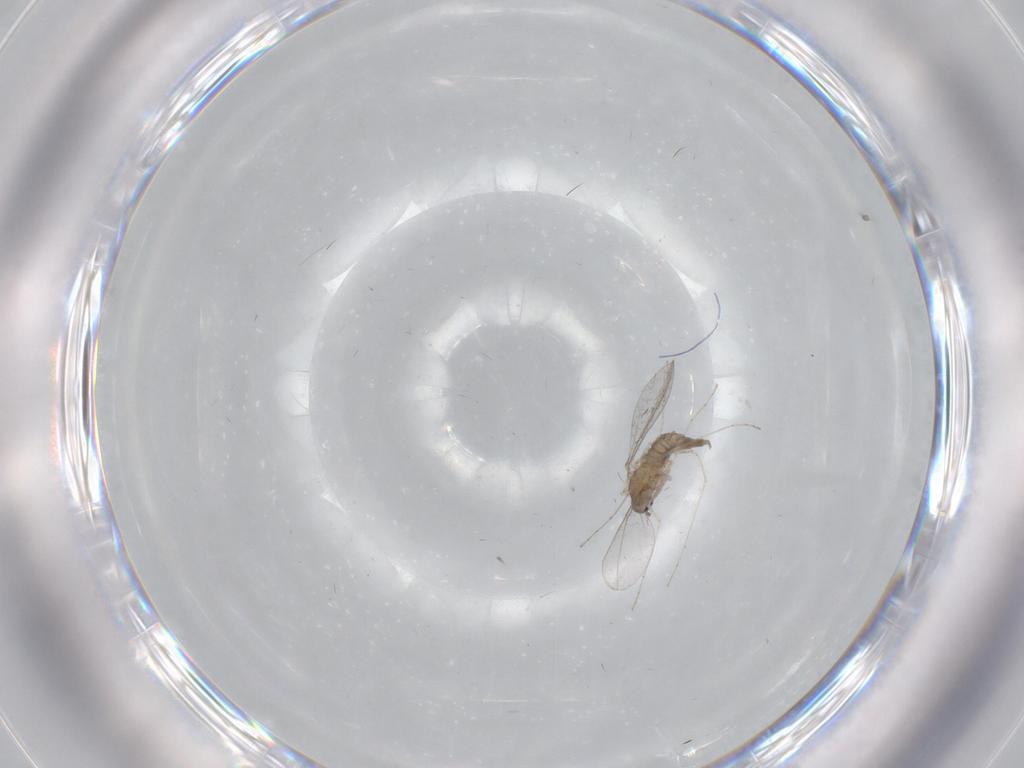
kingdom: Animalia
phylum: Arthropoda
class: Insecta
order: Diptera
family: Cecidomyiidae
